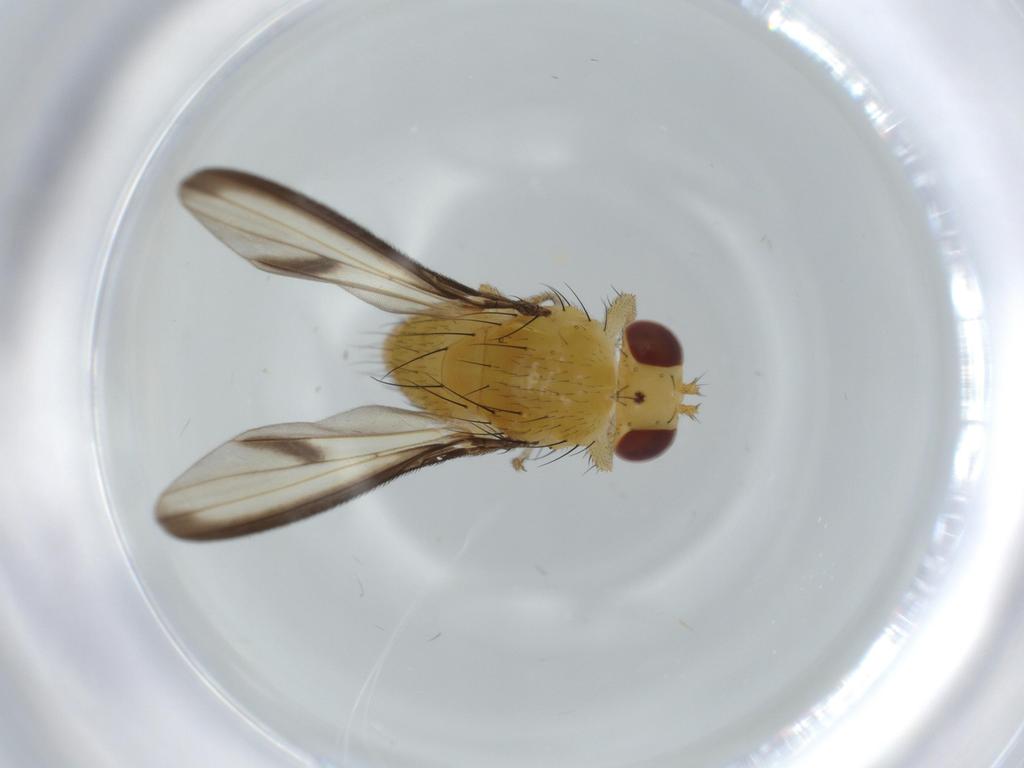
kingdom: Animalia
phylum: Arthropoda
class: Insecta
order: Diptera
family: Lauxaniidae
